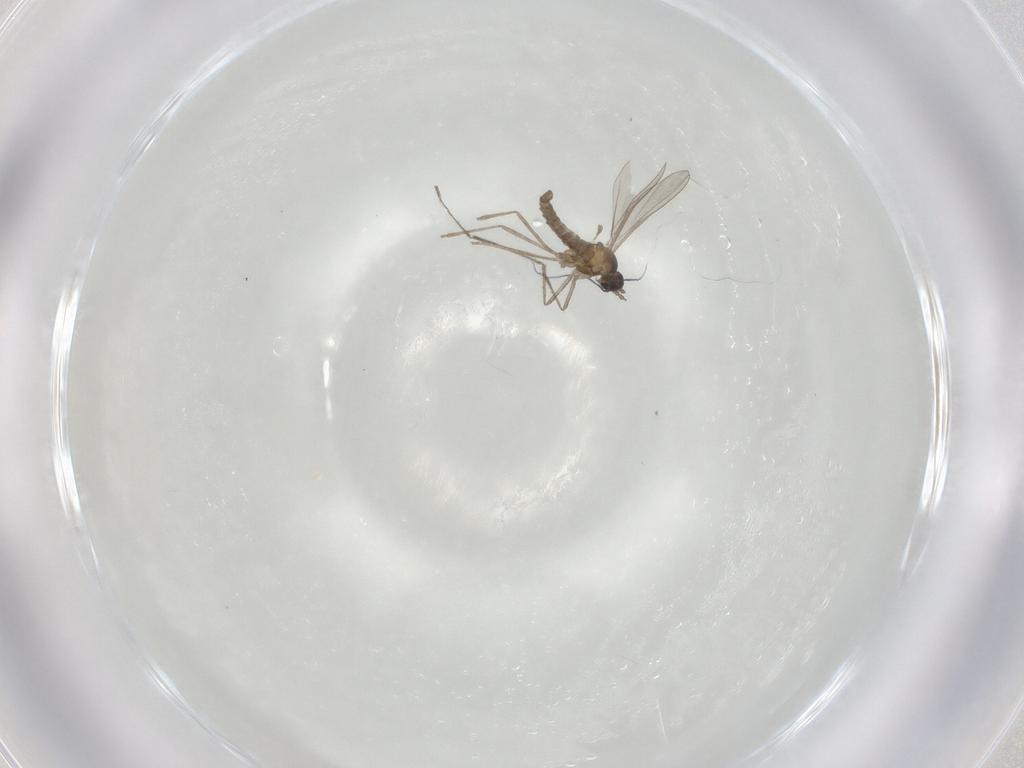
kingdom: Animalia
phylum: Arthropoda
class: Insecta
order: Diptera
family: Cecidomyiidae
